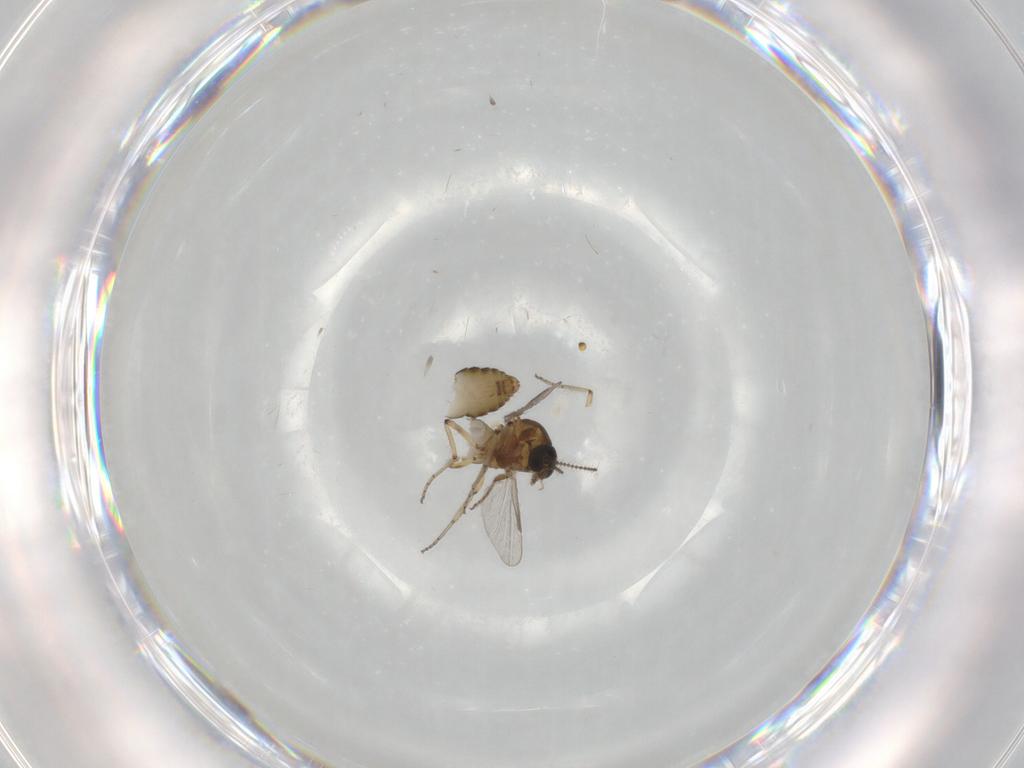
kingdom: Animalia
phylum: Arthropoda
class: Insecta
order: Diptera
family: Ceratopogonidae
